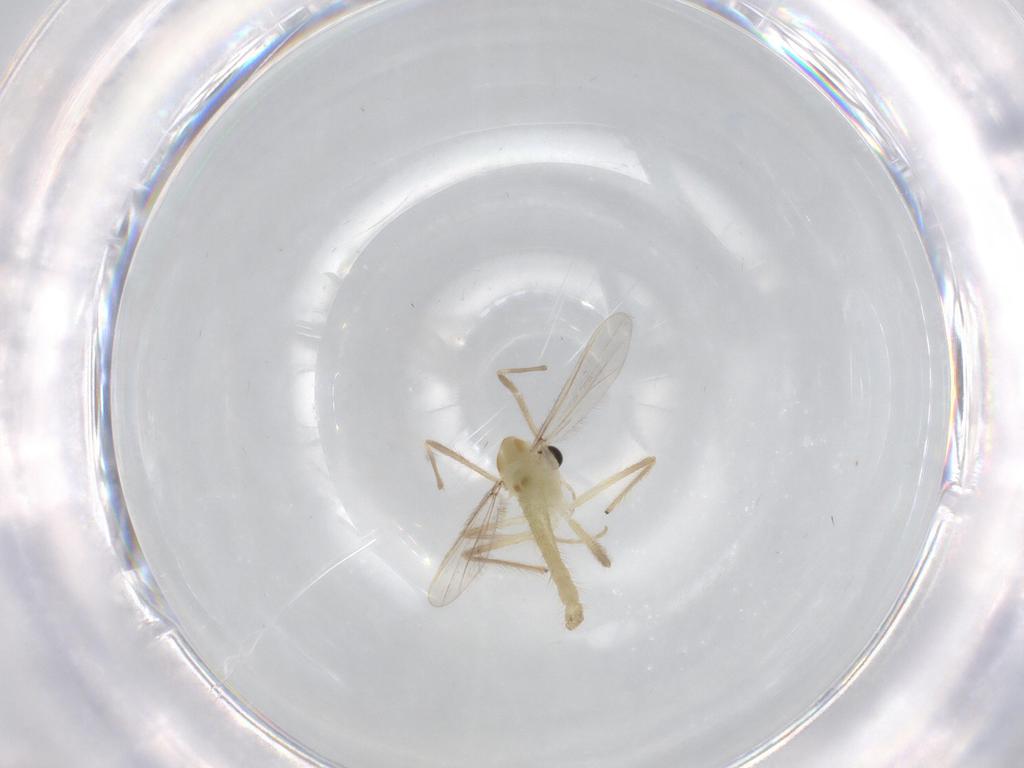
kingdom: Animalia
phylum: Arthropoda
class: Insecta
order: Diptera
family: Chironomidae
